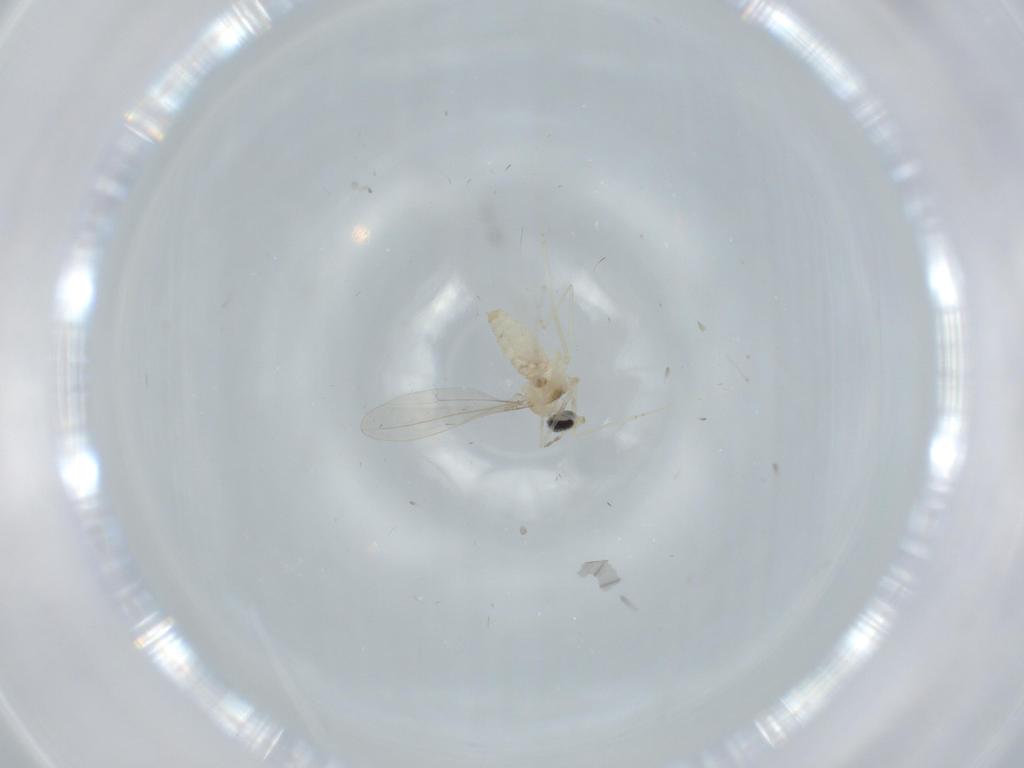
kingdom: Animalia
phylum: Arthropoda
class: Insecta
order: Diptera
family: Cecidomyiidae
